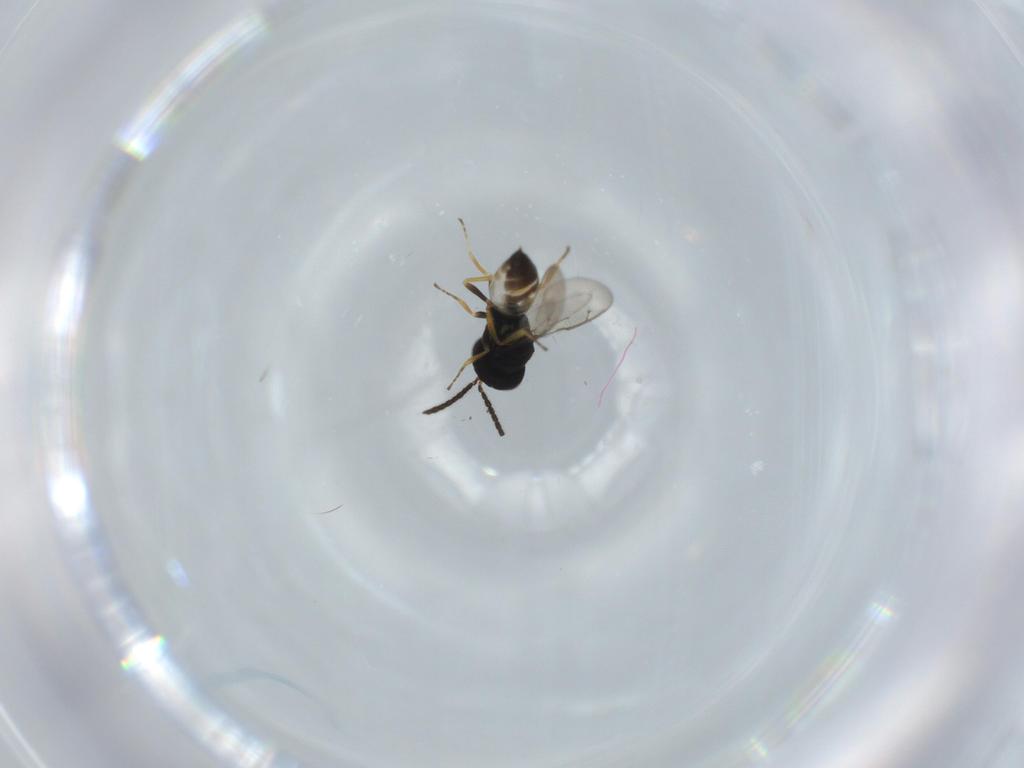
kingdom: Animalia
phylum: Arthropoda
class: Insecta
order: Hymenoptera
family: Pteromalidae
